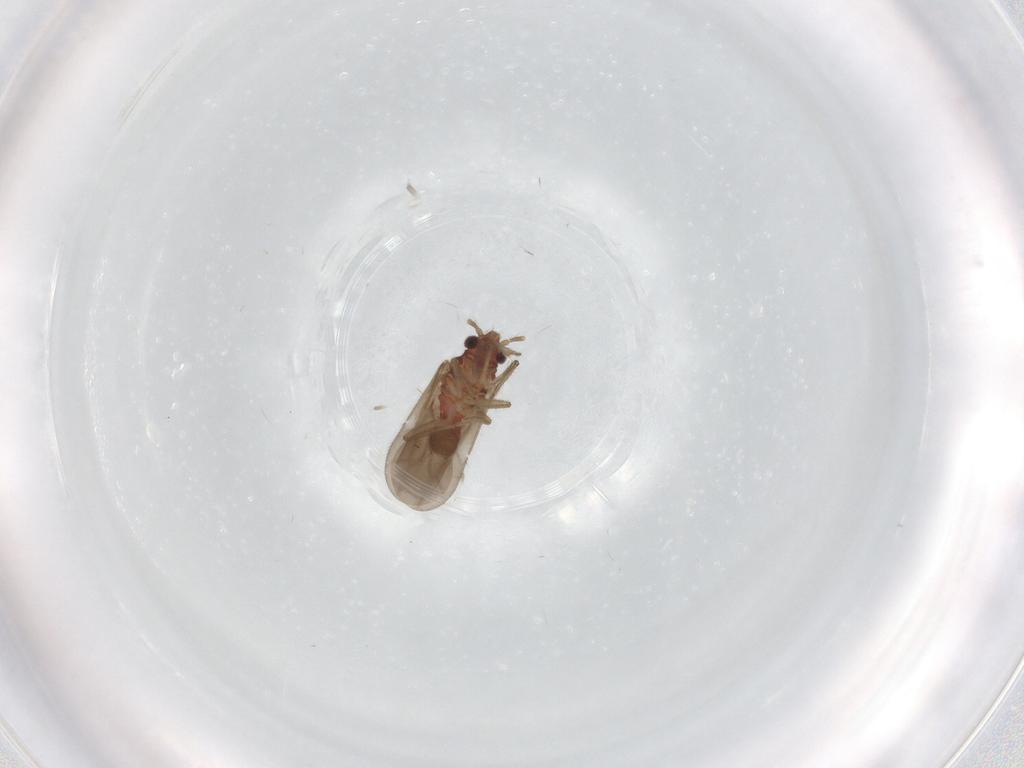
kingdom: Animalia
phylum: Arthropoda
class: Insecta
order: Hemiptera
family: Ceratocombidae
